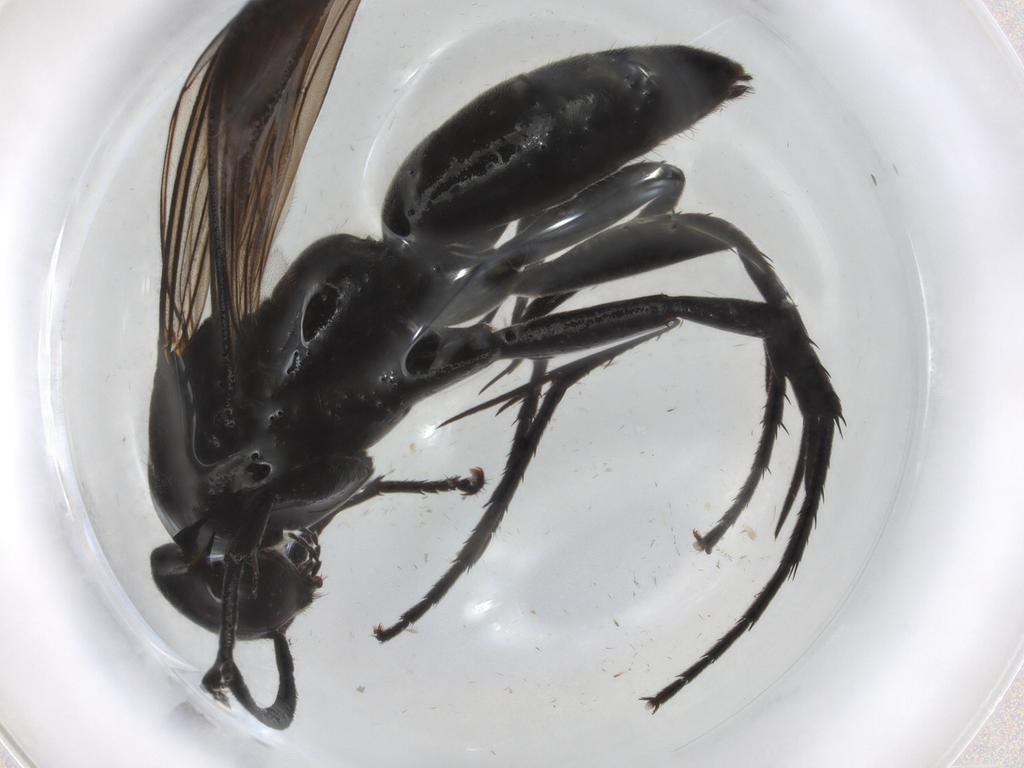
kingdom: Animalia
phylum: Arthropoda
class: Insecta
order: Hymenoptera
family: Pompilidae
